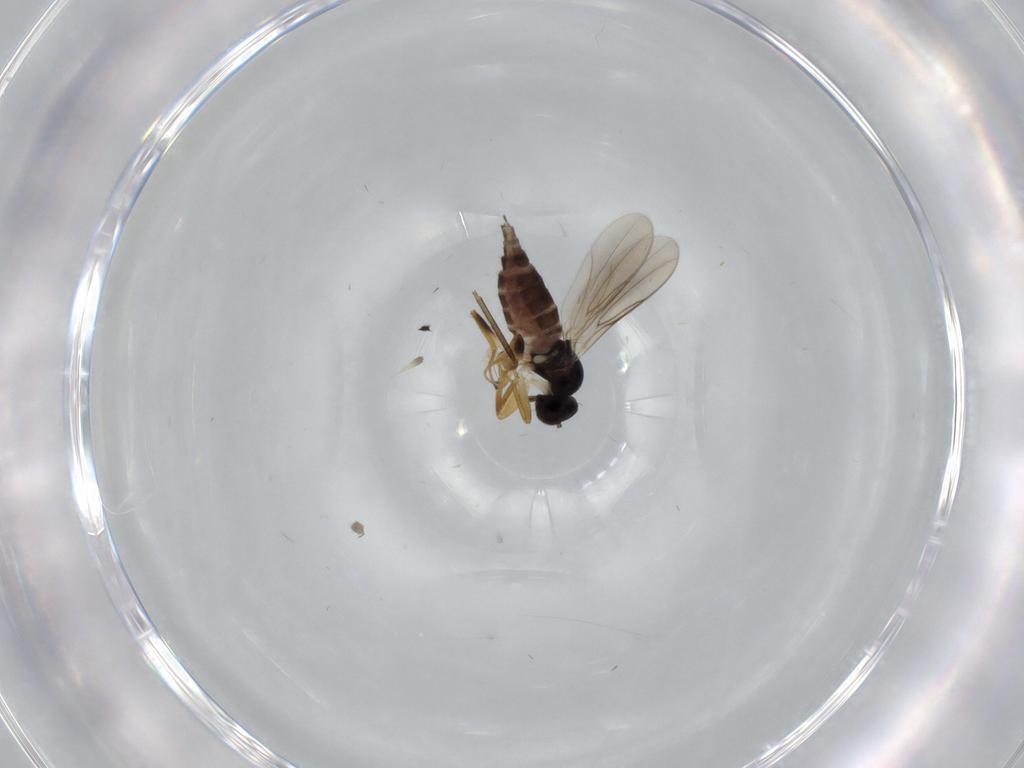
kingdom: Animalia
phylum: Arthropoda
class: Insecta
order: Diptera
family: Hybotidae
